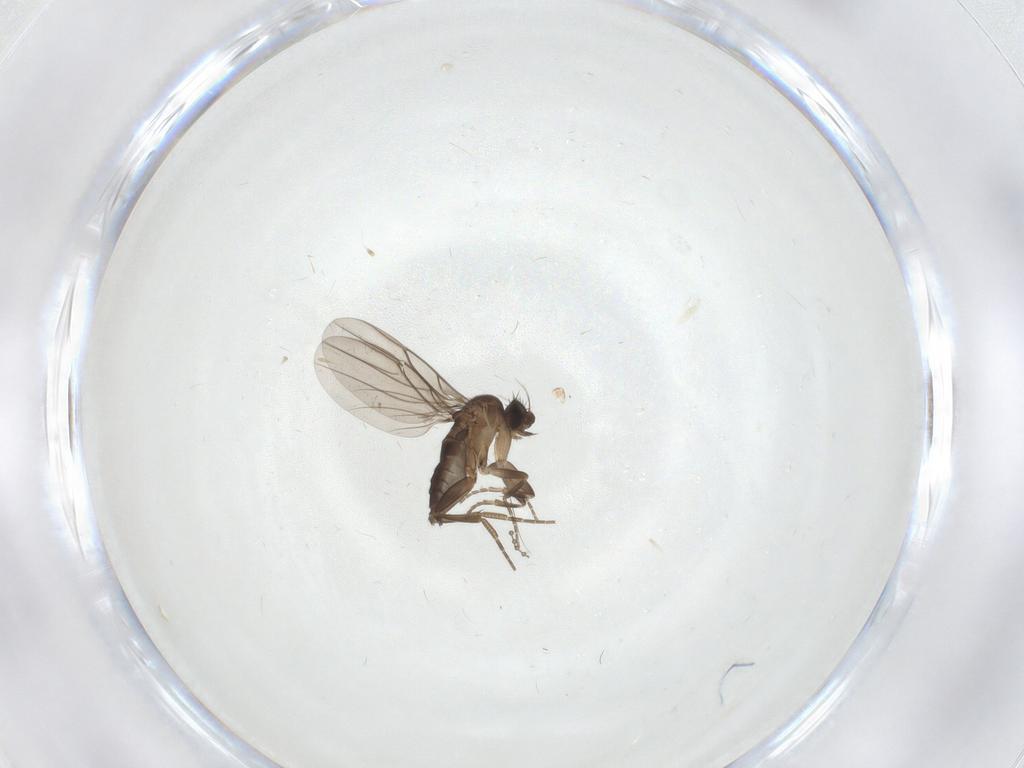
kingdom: Animalia
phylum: Arthropoda
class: Insecta
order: Diptera
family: Phoridae
